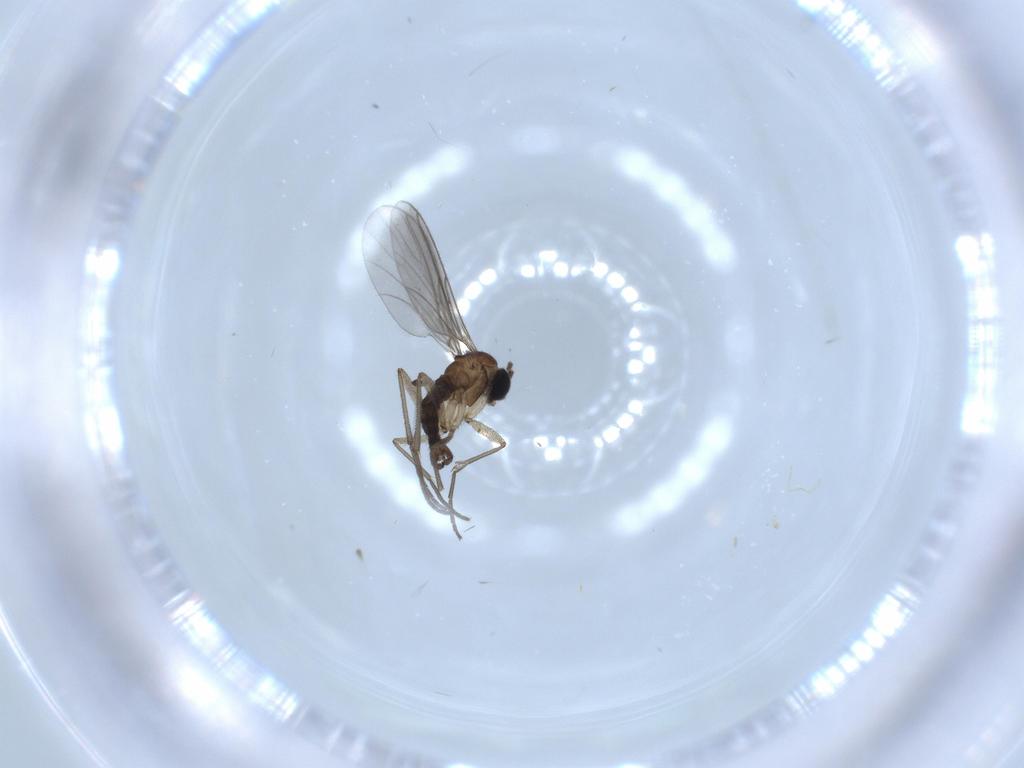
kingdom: Animalia
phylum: Arthropoda
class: Insecta
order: Diptera
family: Sciaridae
